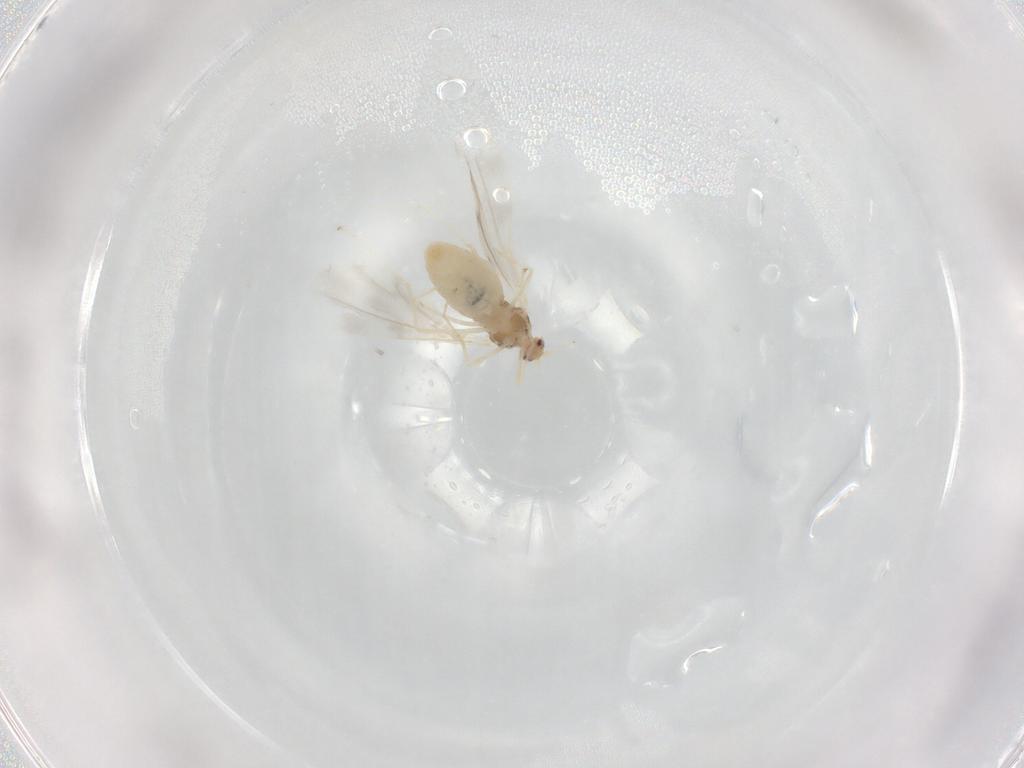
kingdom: Animalia
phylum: Arthropoda
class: Insecta
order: Diptera
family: Cecidomyiidae
